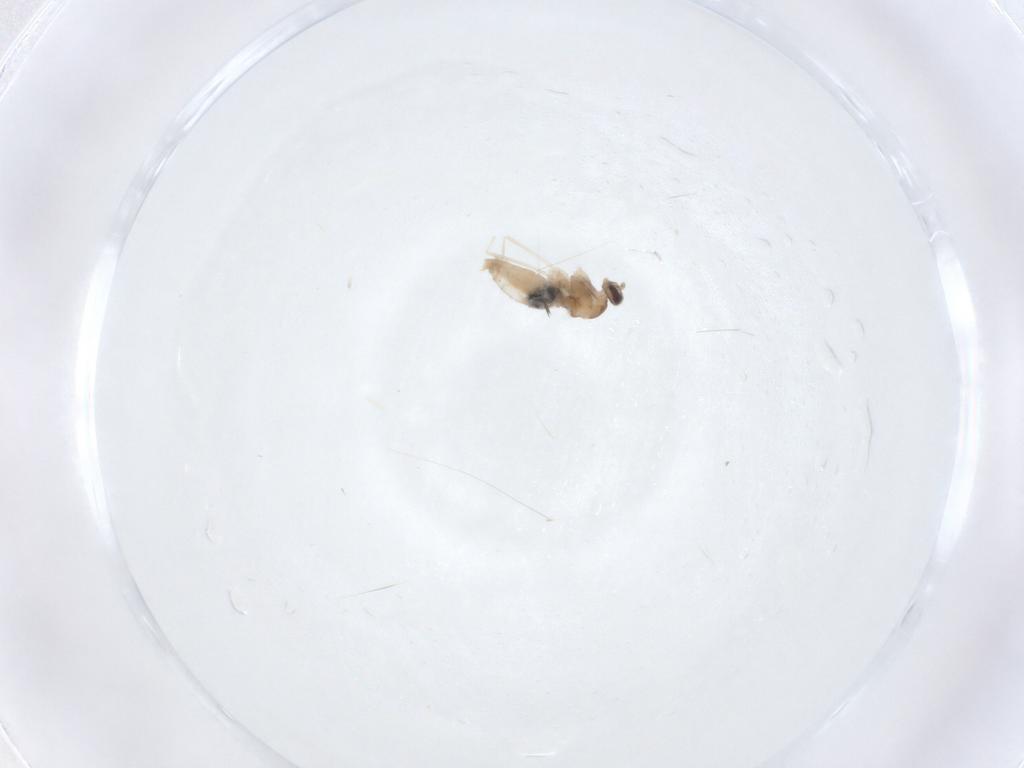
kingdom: Animalia
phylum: Arthropoda
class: Insecta
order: Diptera
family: Cecidomyiidae
